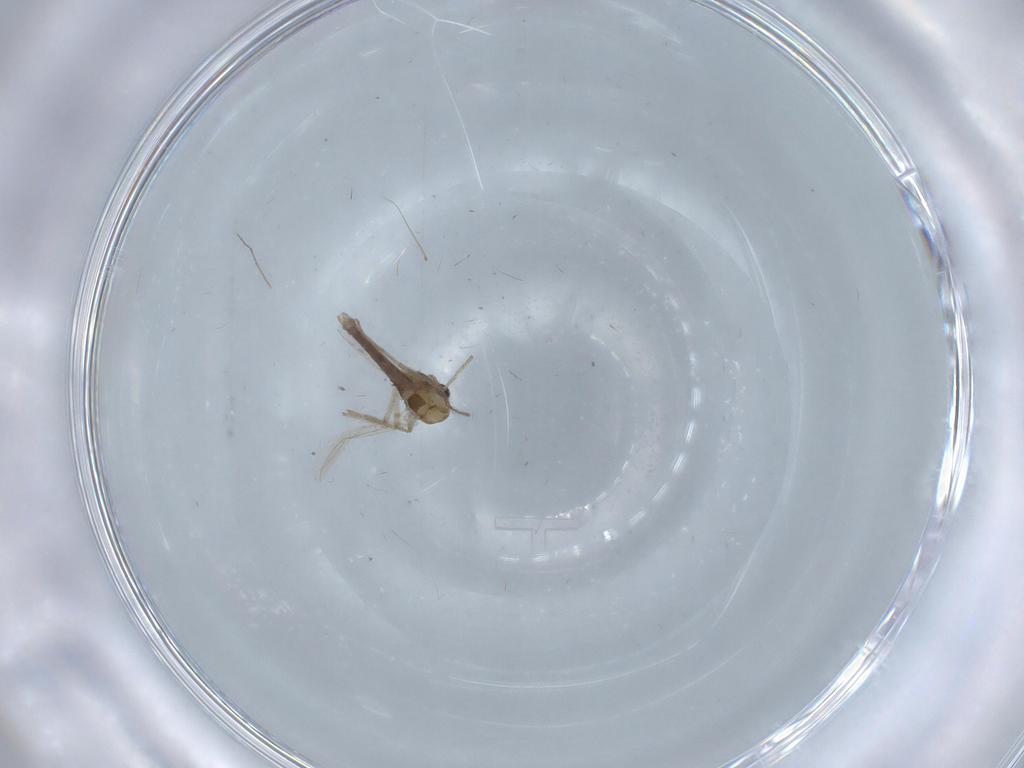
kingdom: Animalia
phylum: Arthropoda
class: Insecta
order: Diptera
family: Chironomidae
